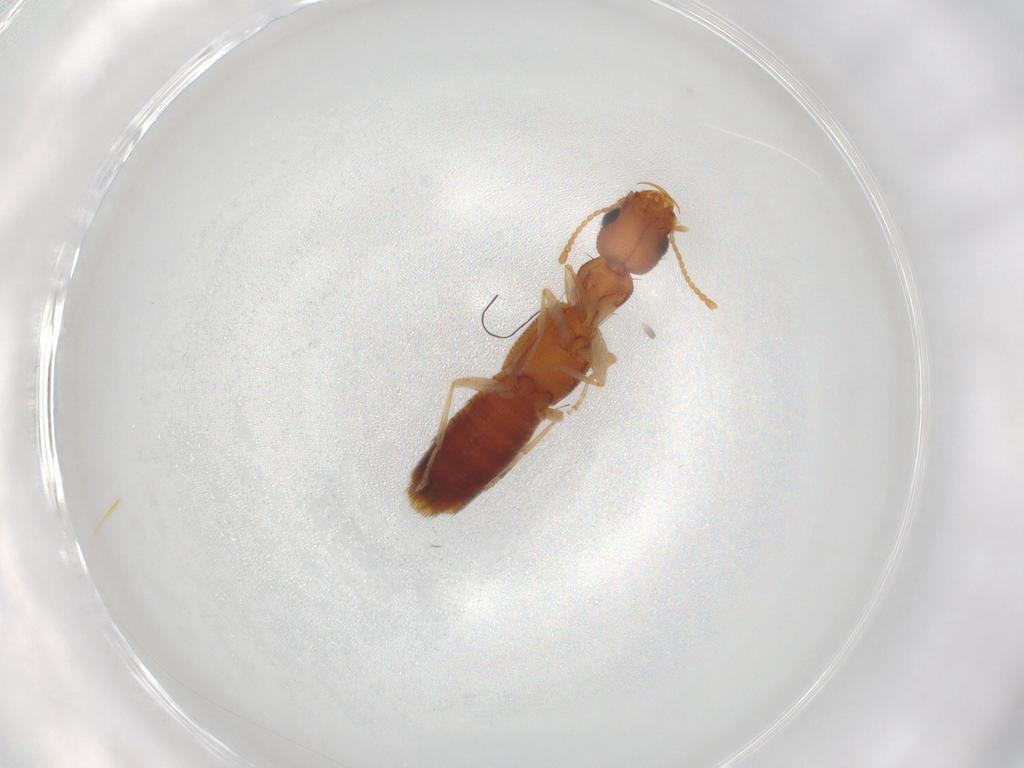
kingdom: Animalia
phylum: Arthropoda
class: Insecta
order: Coleoptera
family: Staphylinidae
